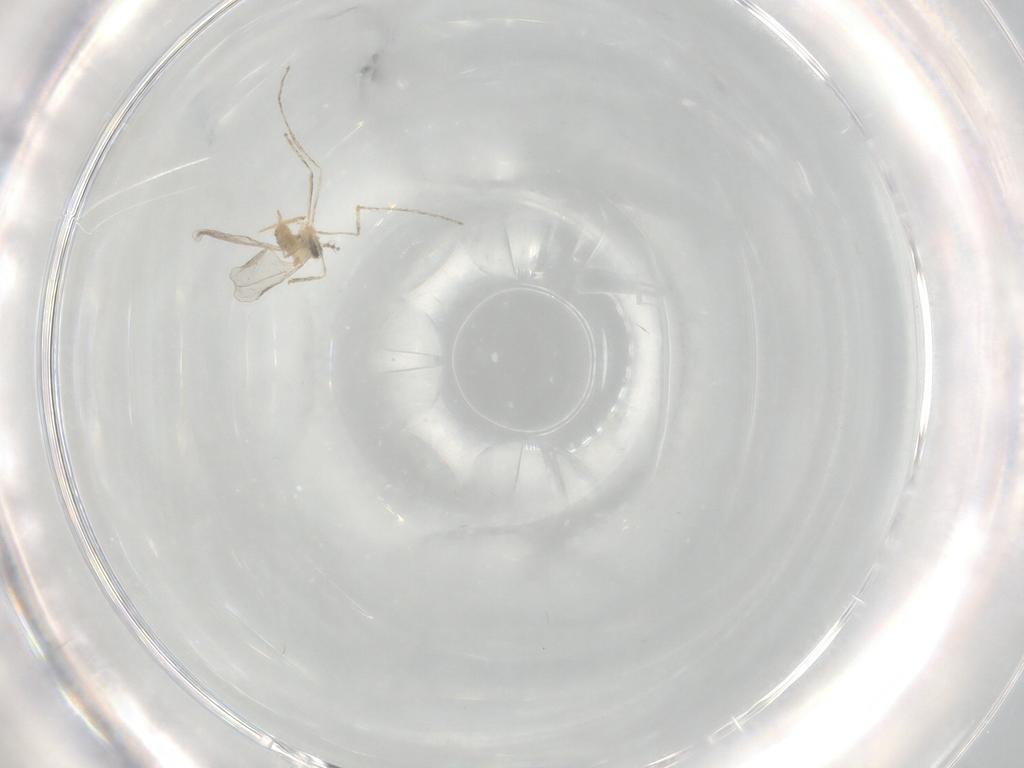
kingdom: Animalia
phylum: Arthropoda
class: Insecta
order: Diptera
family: Cecidomyiidae
